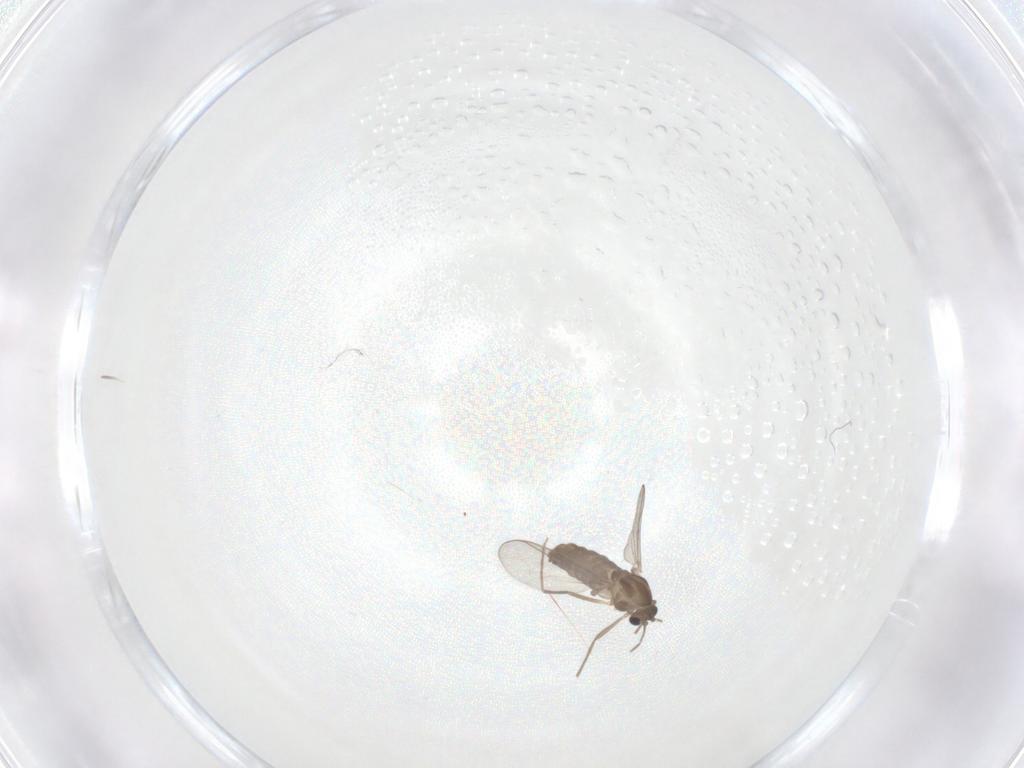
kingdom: Animalia
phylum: Arthropoda
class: Insecta
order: Diptera
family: Chironomidae
